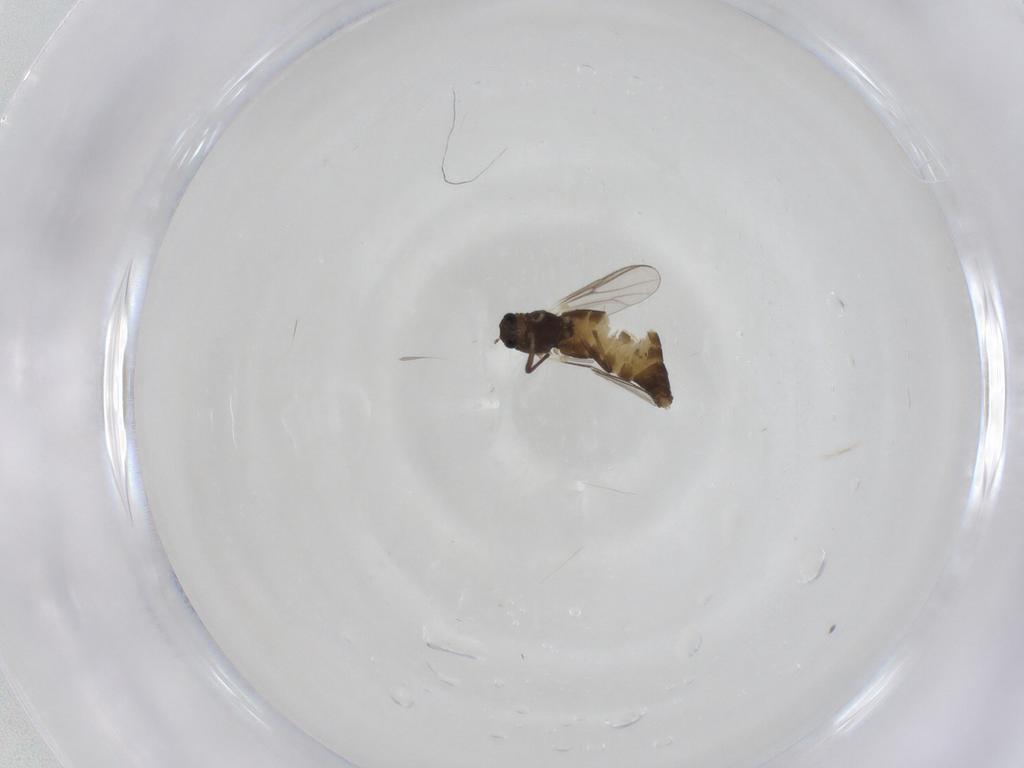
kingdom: Animalia
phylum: Arthropoda
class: Insecta
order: Diptera
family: Chironomidae
